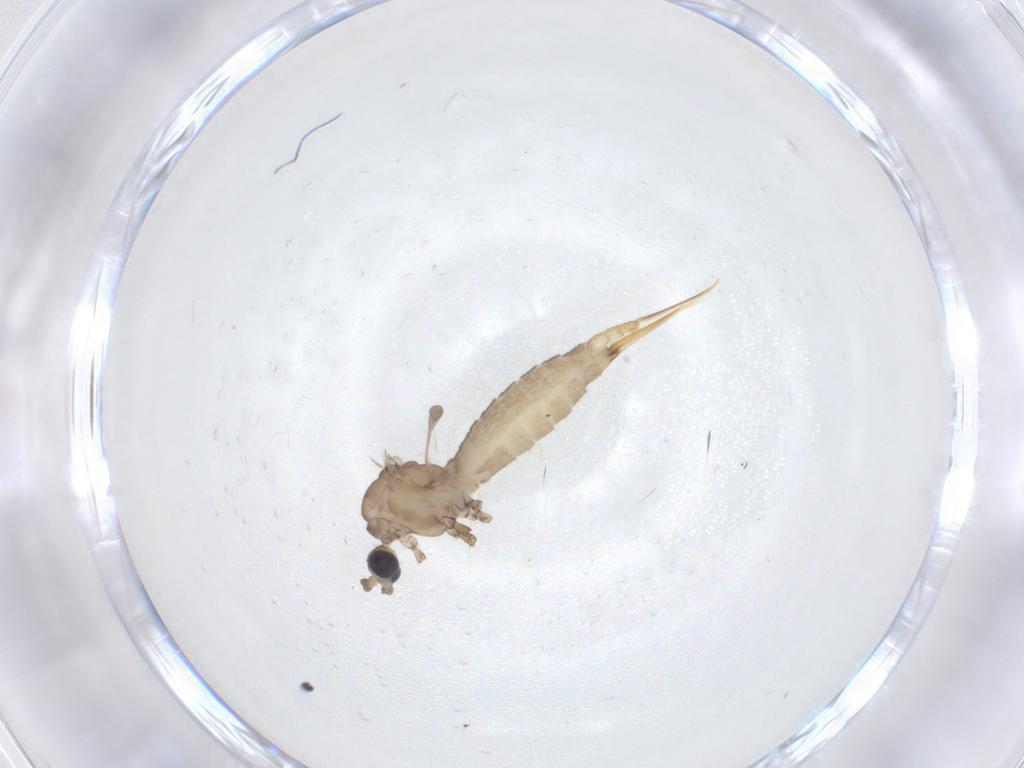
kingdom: Animalia
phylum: Arthropoda
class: Insecta
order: Diptera
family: Limoniidae
